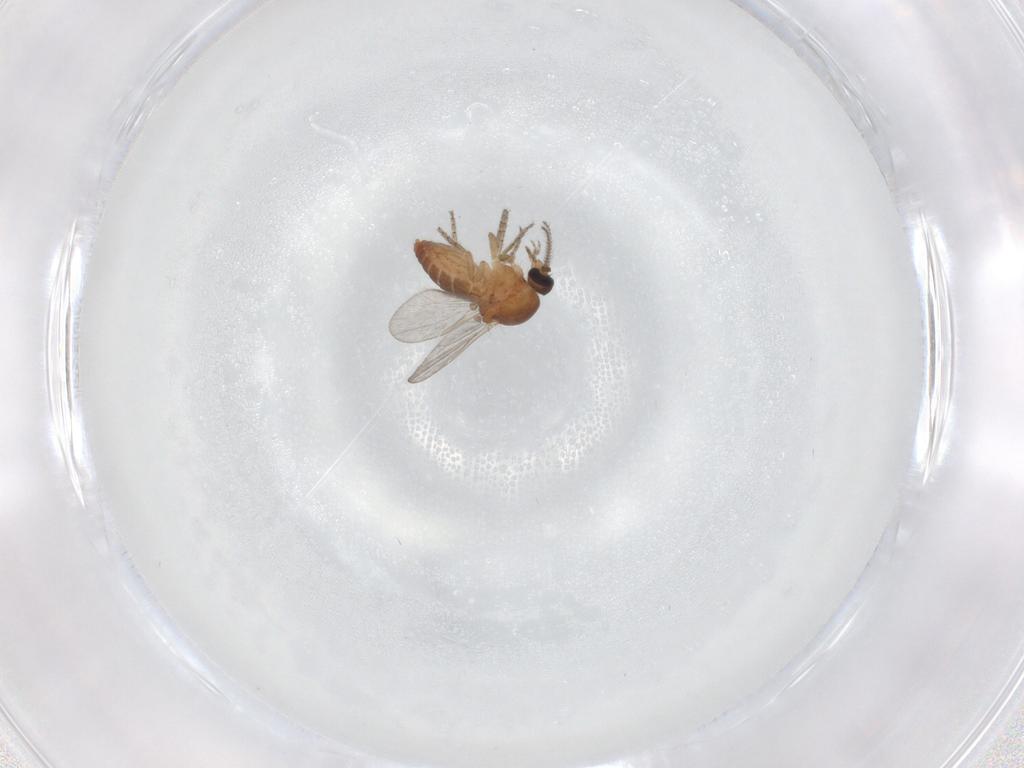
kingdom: Animalia
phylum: Arthropoda
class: Insecta
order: Diptera
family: Ceratopogonidae
